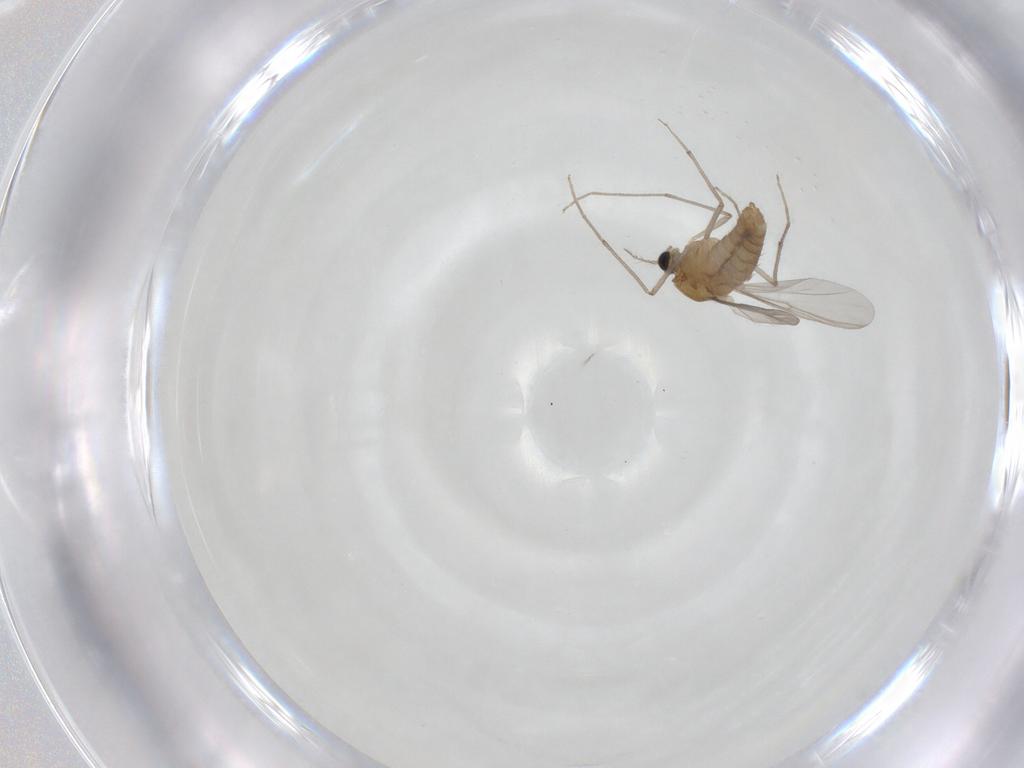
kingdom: Animalia
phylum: Arthropoda
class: Insecta
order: Diptera
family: Chironomidae
